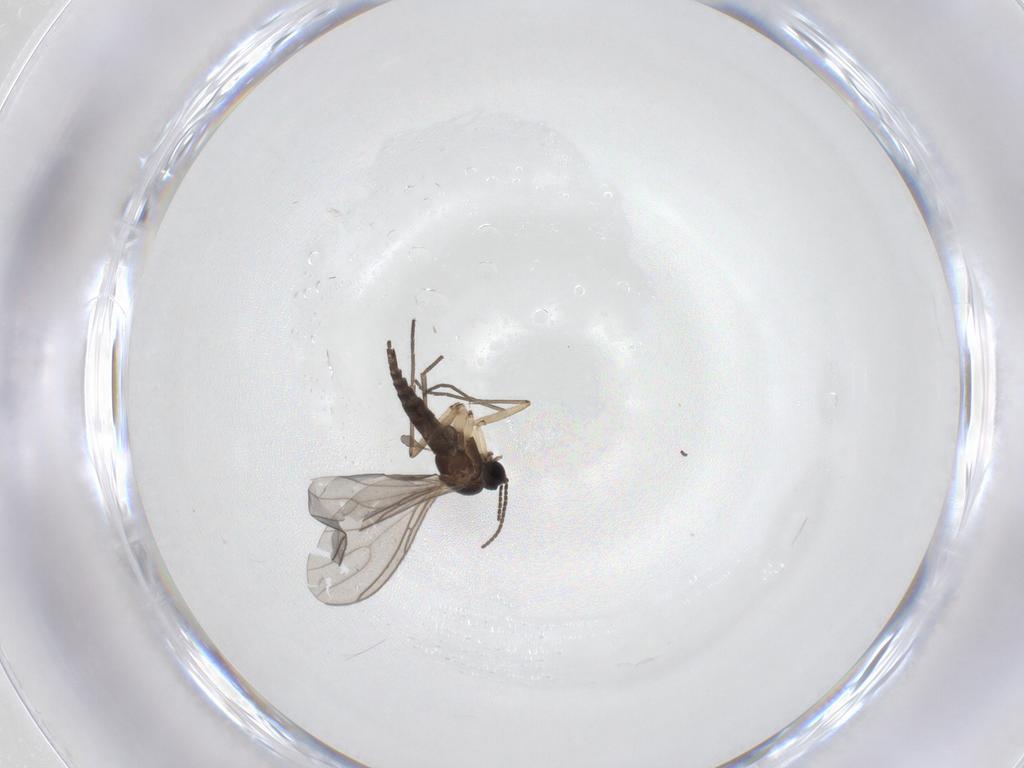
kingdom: Animalia
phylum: Arthropoda
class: Insecta
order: Diptera
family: Sciaridae
